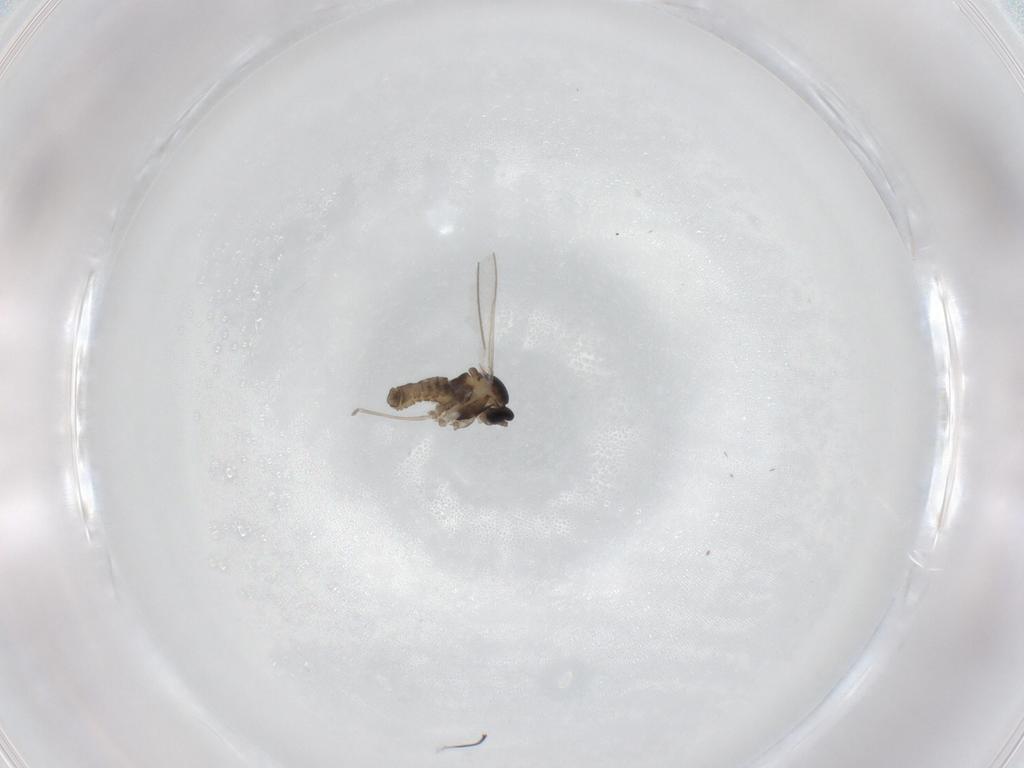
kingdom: Animalia
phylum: Arthropoda
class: Insecta
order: Diptera
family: Cecidomyiidae
